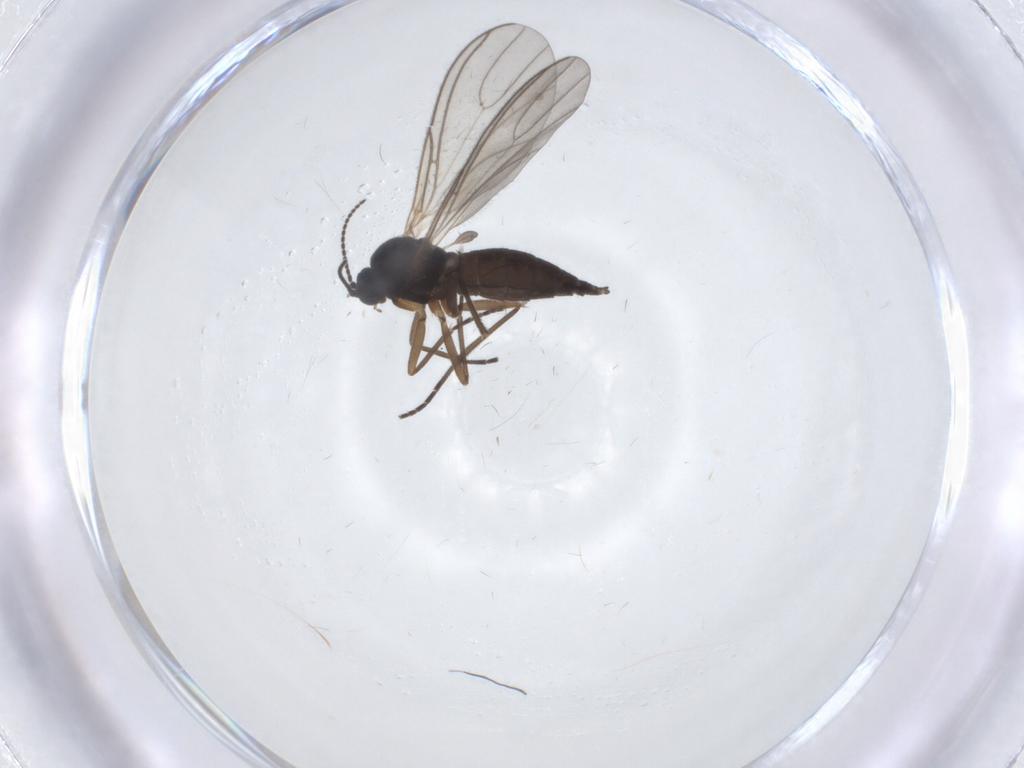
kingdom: Animalia
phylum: Arthropoda
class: Insecta
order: Diptera
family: Sciaridae
